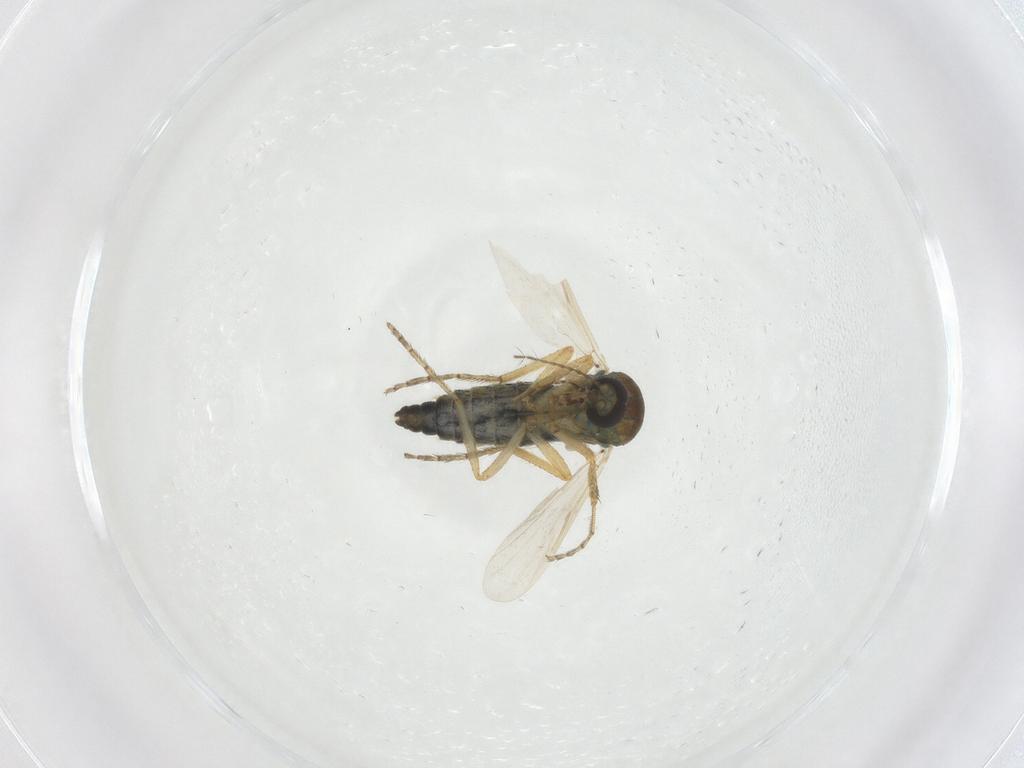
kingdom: Animalia
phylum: Arthropoda
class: Insecta
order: Diptera
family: Ceratopogonidae
